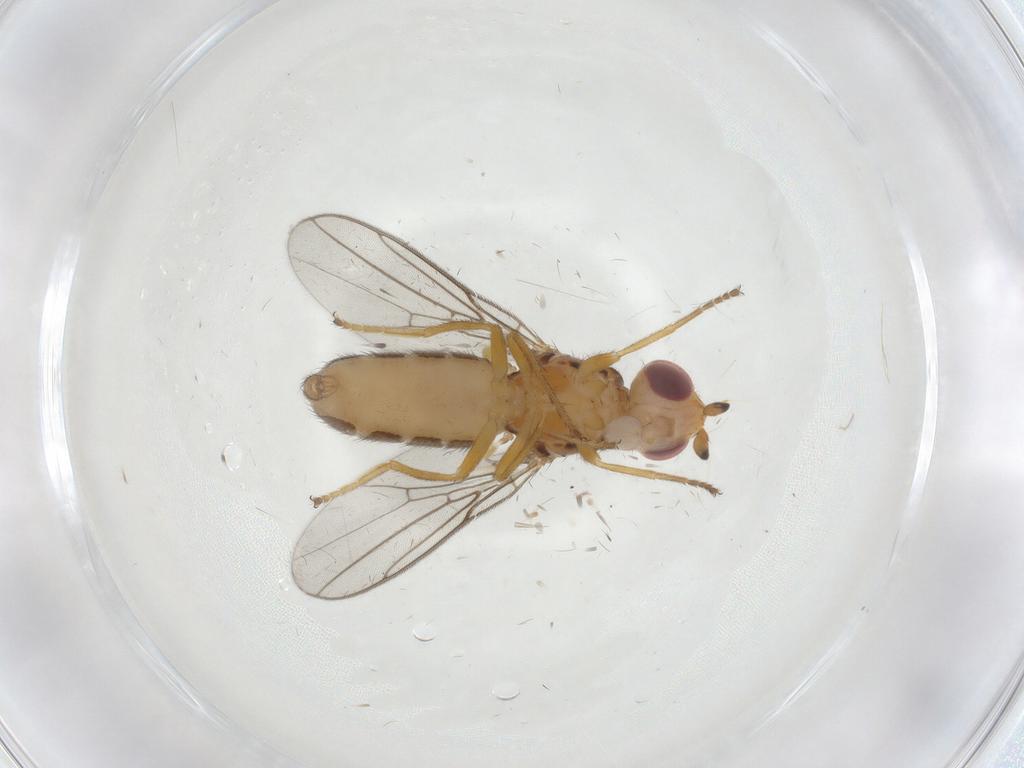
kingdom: Animalia
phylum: Arthropoda
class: Insecta
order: Diptera
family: Chloropidae
